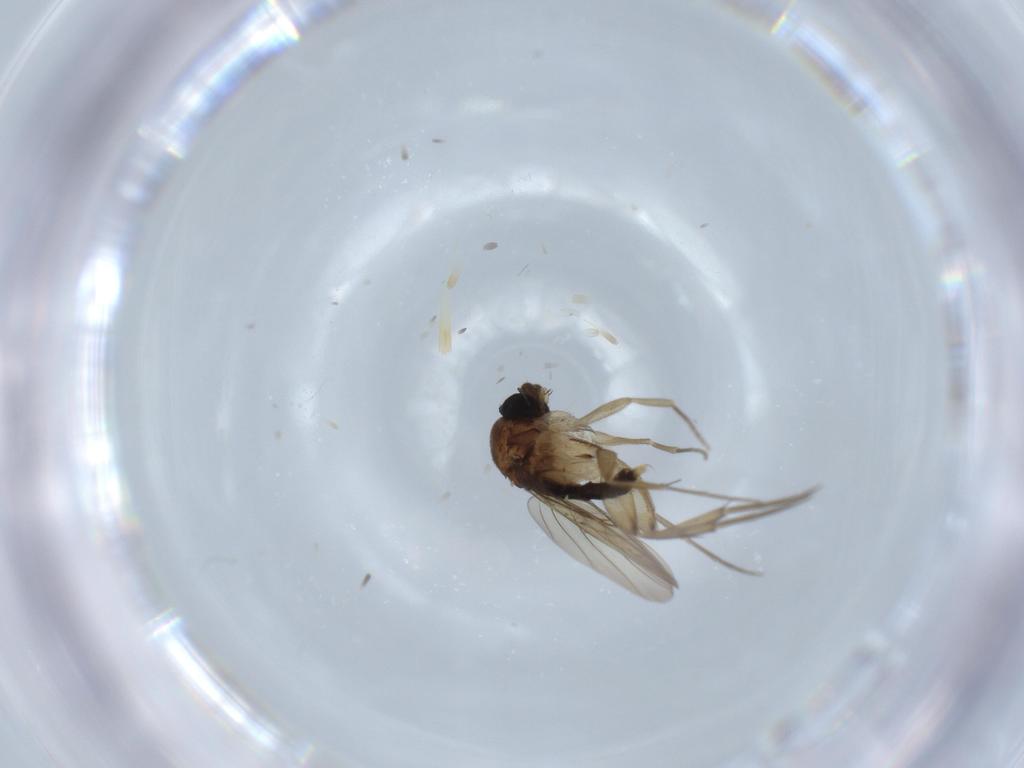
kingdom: Animalia
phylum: Arthropoda
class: Insecta
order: Diptera
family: Phoridae
